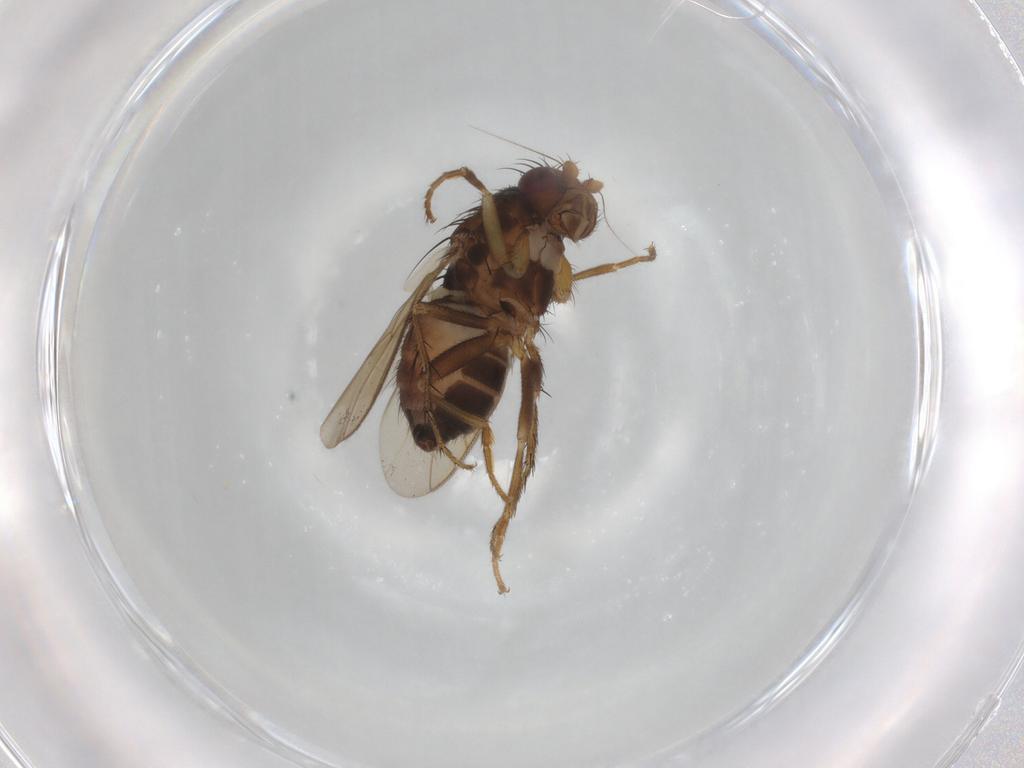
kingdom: Animalia
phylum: Arthropoda
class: Insecta
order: Diptera
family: Sphaeroceridae
